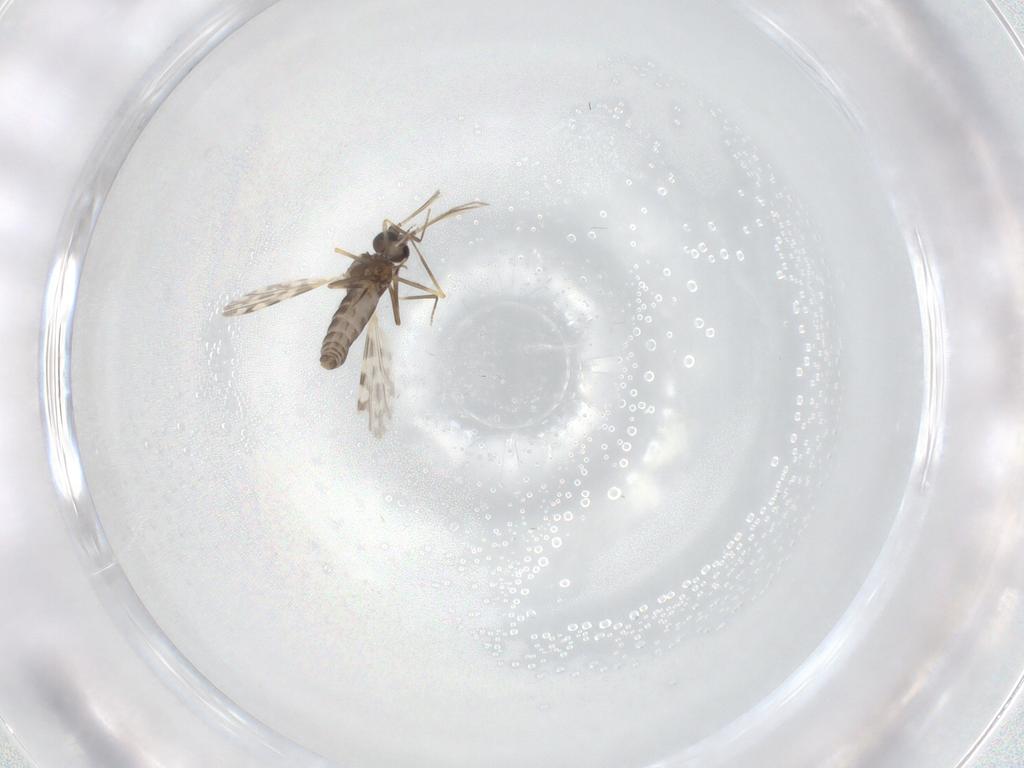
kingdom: Animalia
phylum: Arthropoda
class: Insecta
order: Diptera
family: Ceratopogonidae
